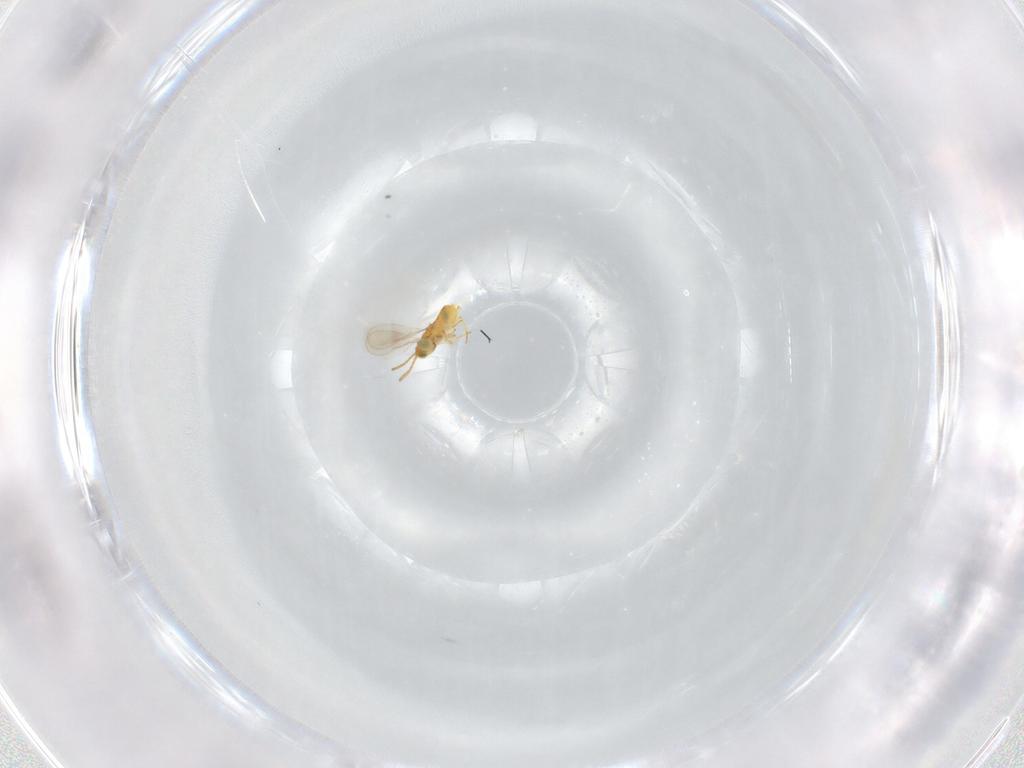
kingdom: Animalia
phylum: Arthropoda
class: Insecta
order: Hymenoptera
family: Aphelinidae
